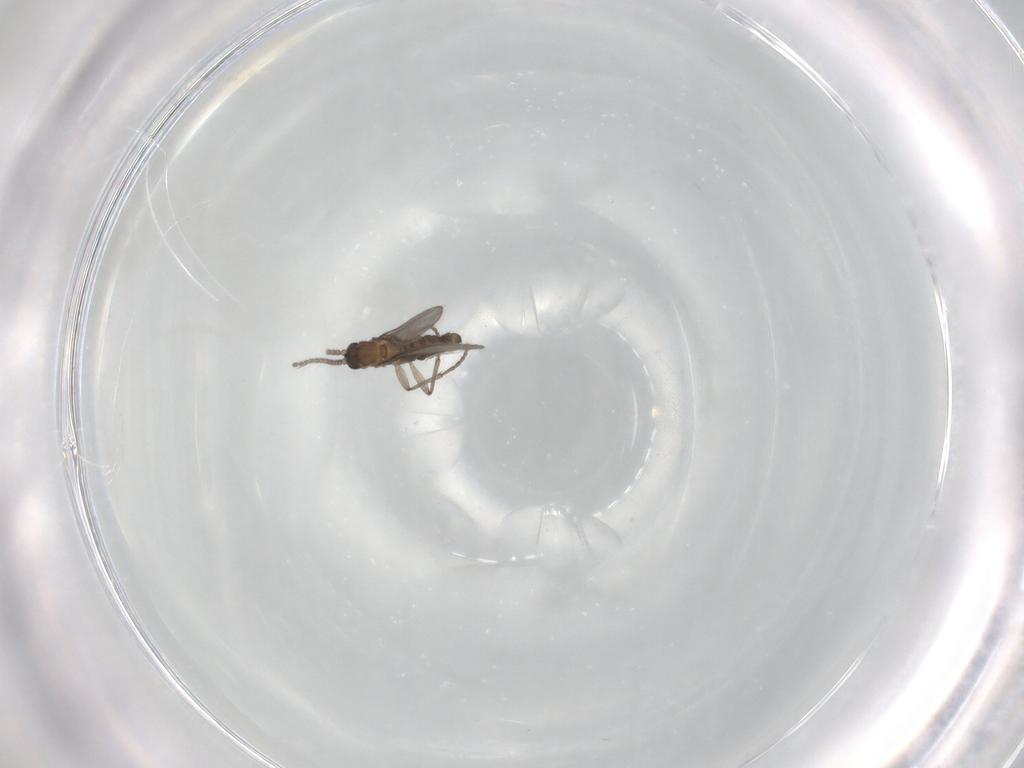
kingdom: Animalia
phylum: Arthropoda
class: Insecta
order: Diptera
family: Sciaridae
